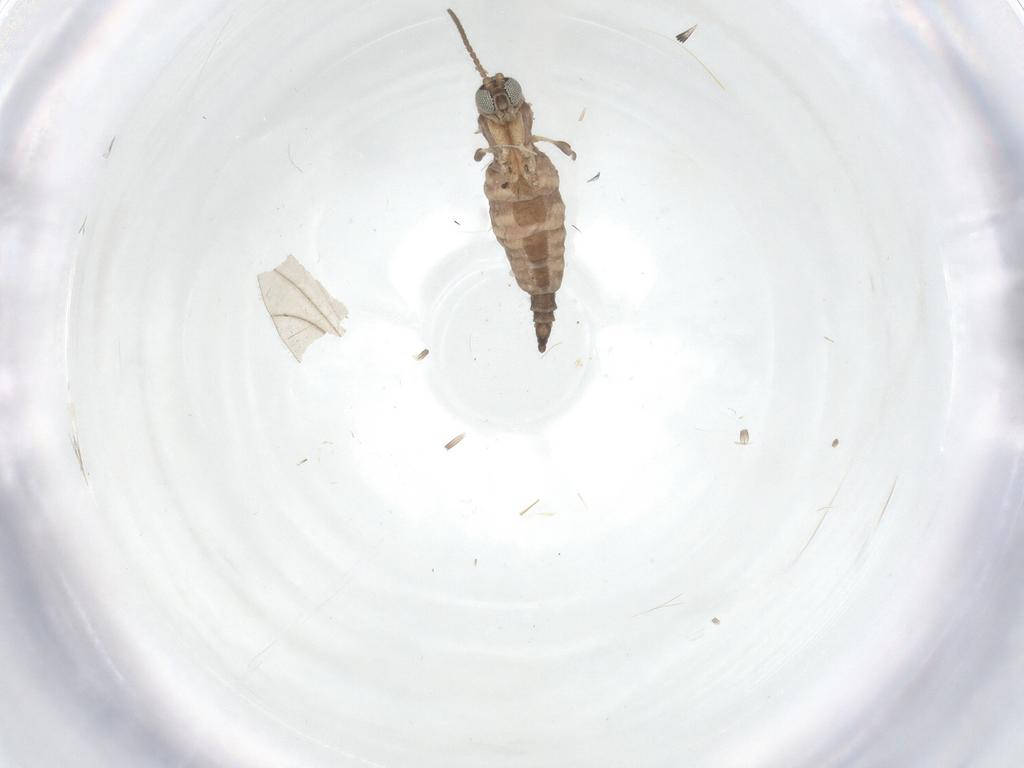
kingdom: Animalia
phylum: Arthropoda
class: Insecta
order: Diptera
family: Sciaridae
